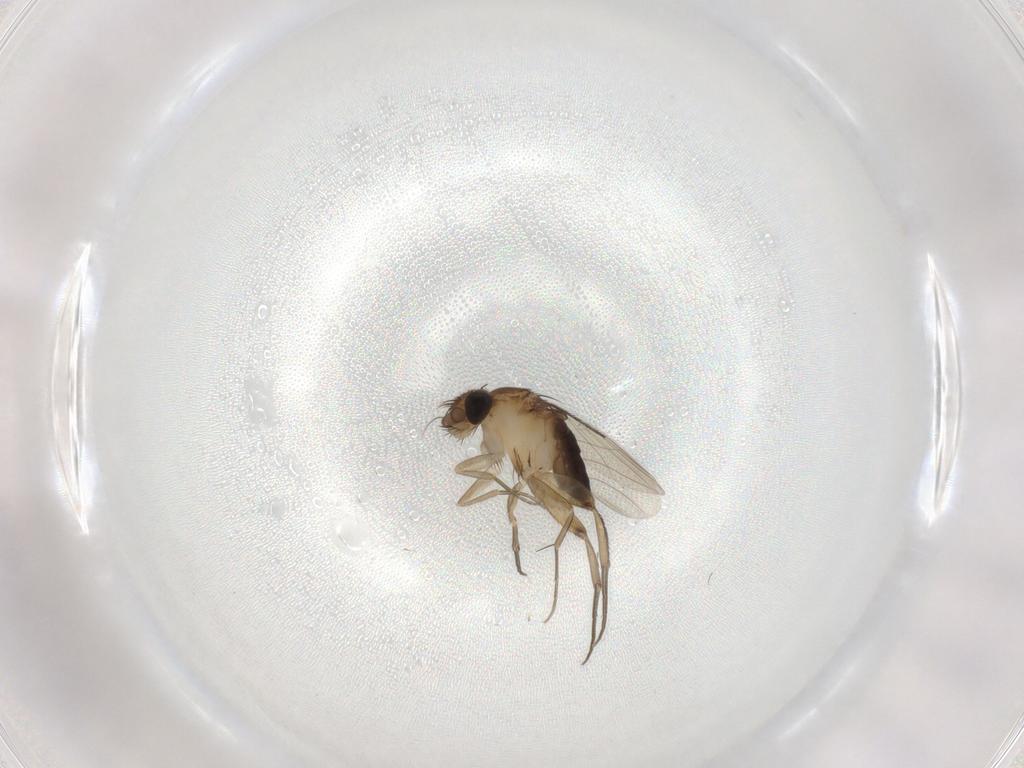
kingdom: Animalia
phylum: Arthropoda
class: Insecta
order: Diptera
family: Phoridae
